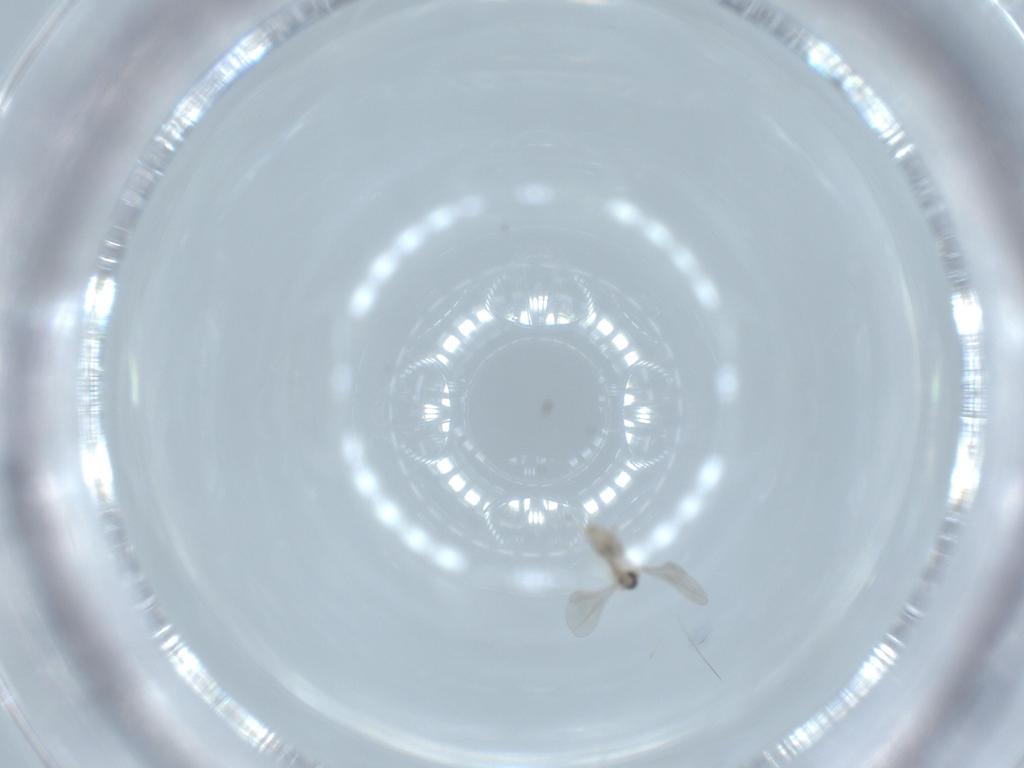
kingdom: Animalia
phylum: Arthropoda
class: Insecta
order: Diptera
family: Cecidomyiidae
